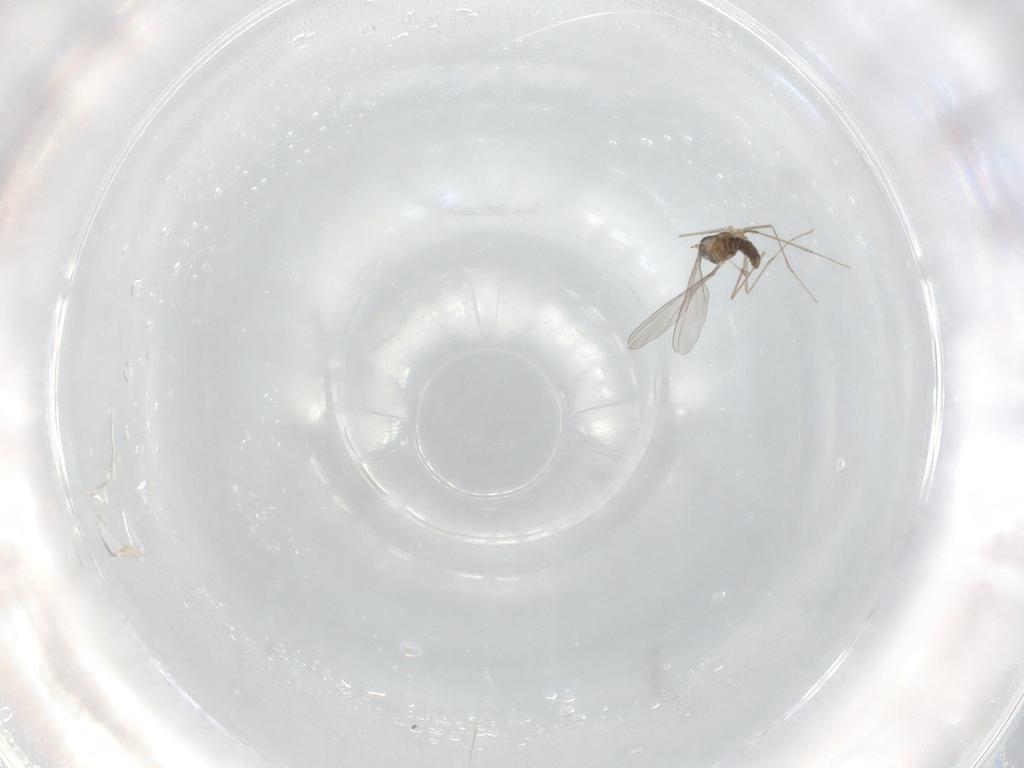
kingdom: Animalia
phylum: Arthropoda
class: Insecta
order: Diptera
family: Cecidomyiidae
